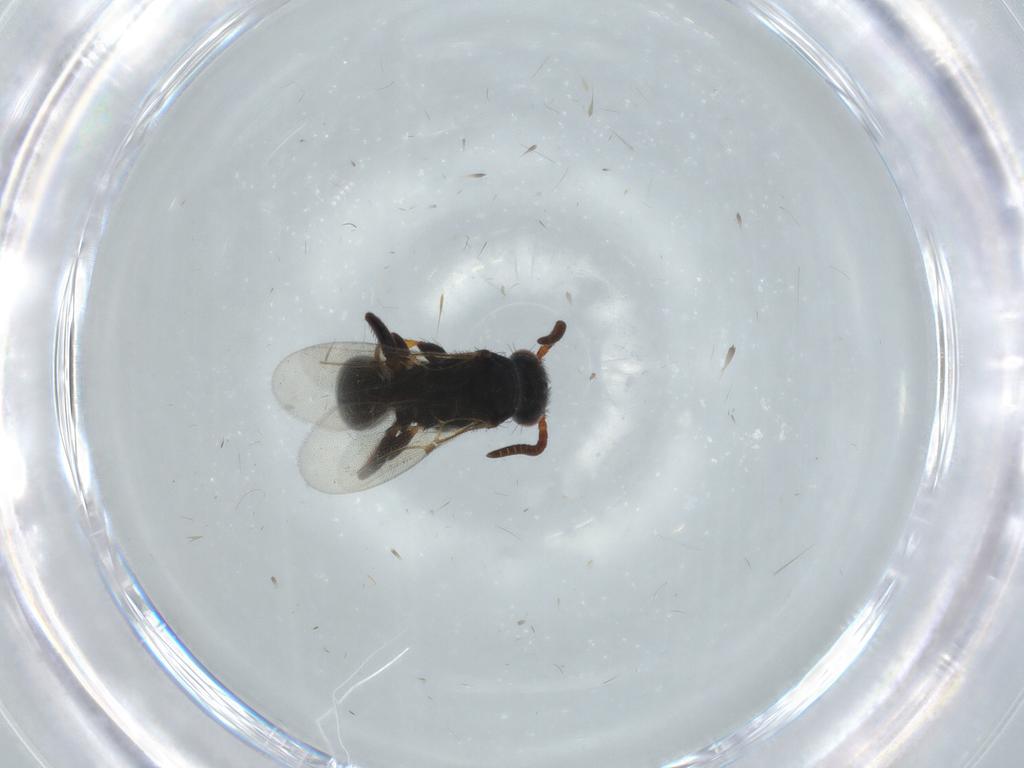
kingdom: Animalia
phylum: Arthropoda
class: Insecta
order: Hymenoptera
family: Bethylidae
